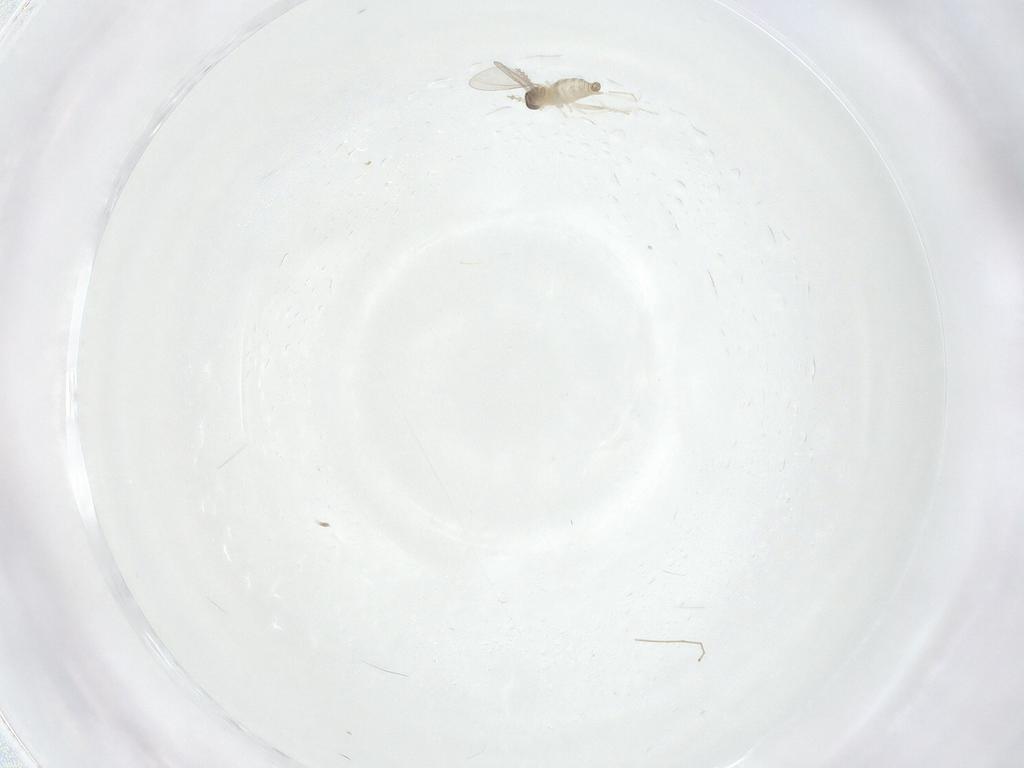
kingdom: Animalia
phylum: Arthropoda
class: Insecta
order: Diptera
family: Cecidomyiidae
